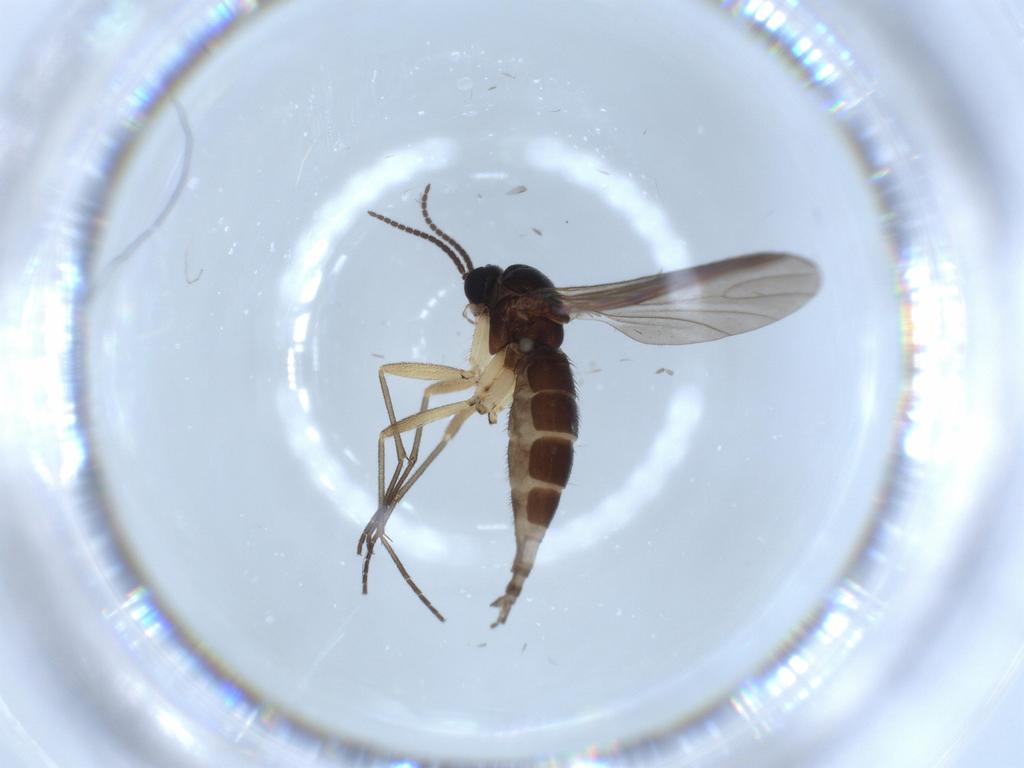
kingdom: Animalia
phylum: Arthropoda
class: Insecta
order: Diptera
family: Sciaridae
